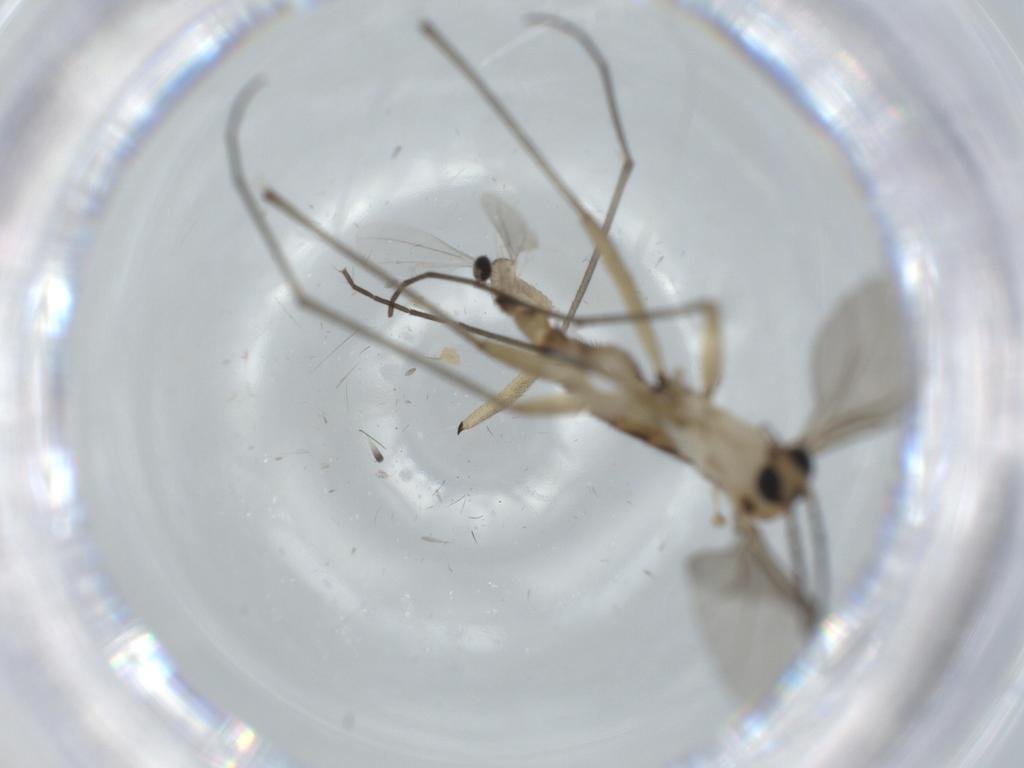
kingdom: Animalia
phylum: Arthropoda
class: Insecta
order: Diptera
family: Sciaridae
